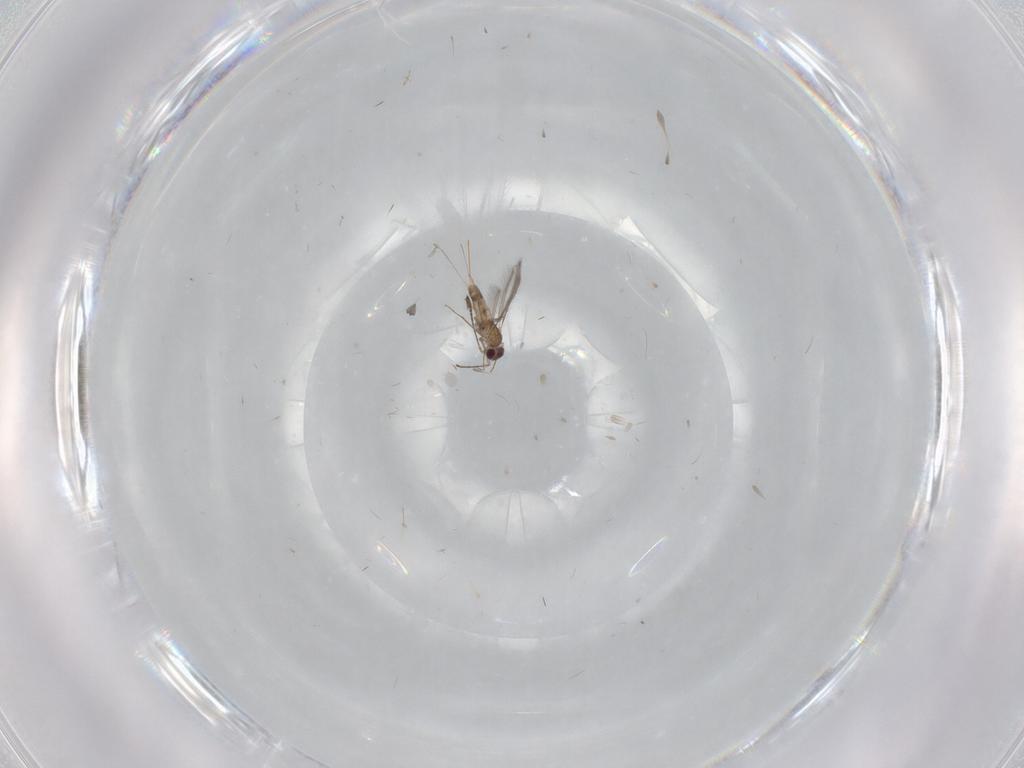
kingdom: Animalia
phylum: Arthropoda
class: Insecta
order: Hymenoptera
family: Mymaridae
